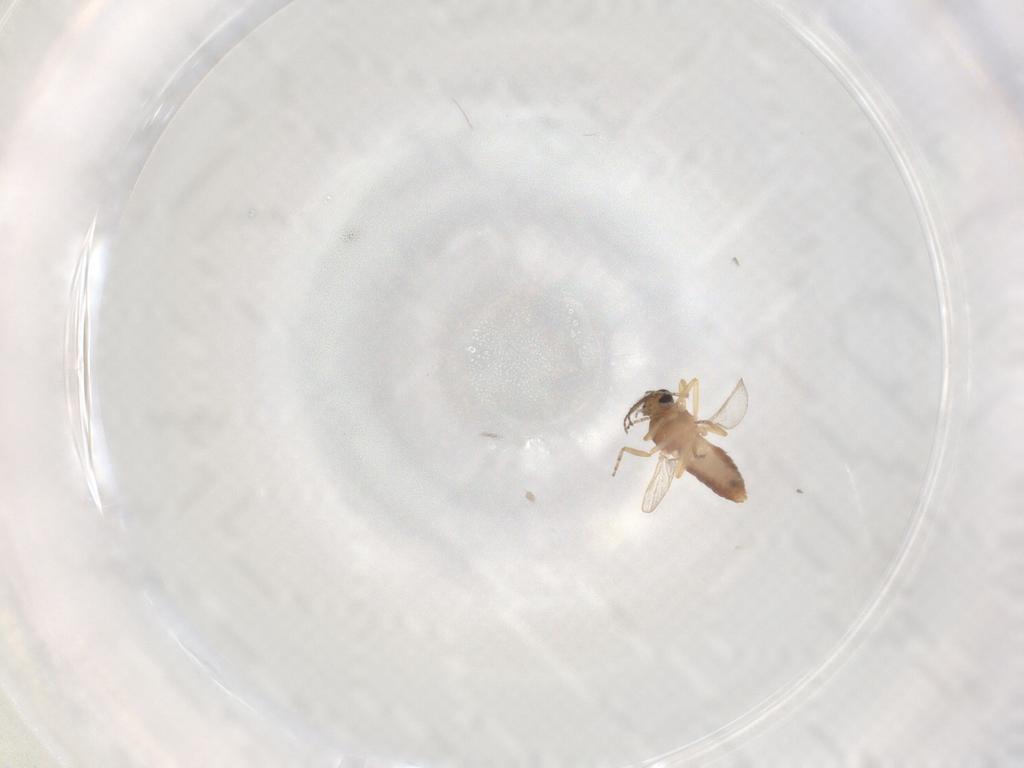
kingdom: Animalia
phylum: Arthropoda
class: Insecta
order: Diptera
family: Ceratopogonidae
